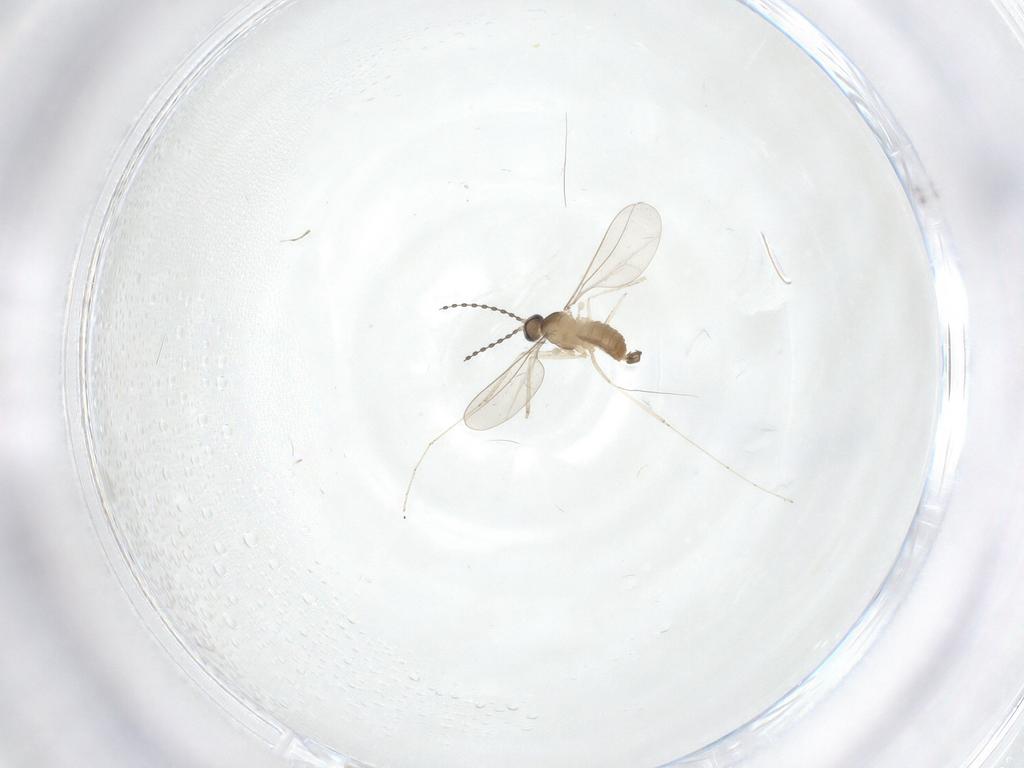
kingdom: Animalia
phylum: Arthropoda
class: Insecta
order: Diptera
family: Cecidomyiidae
